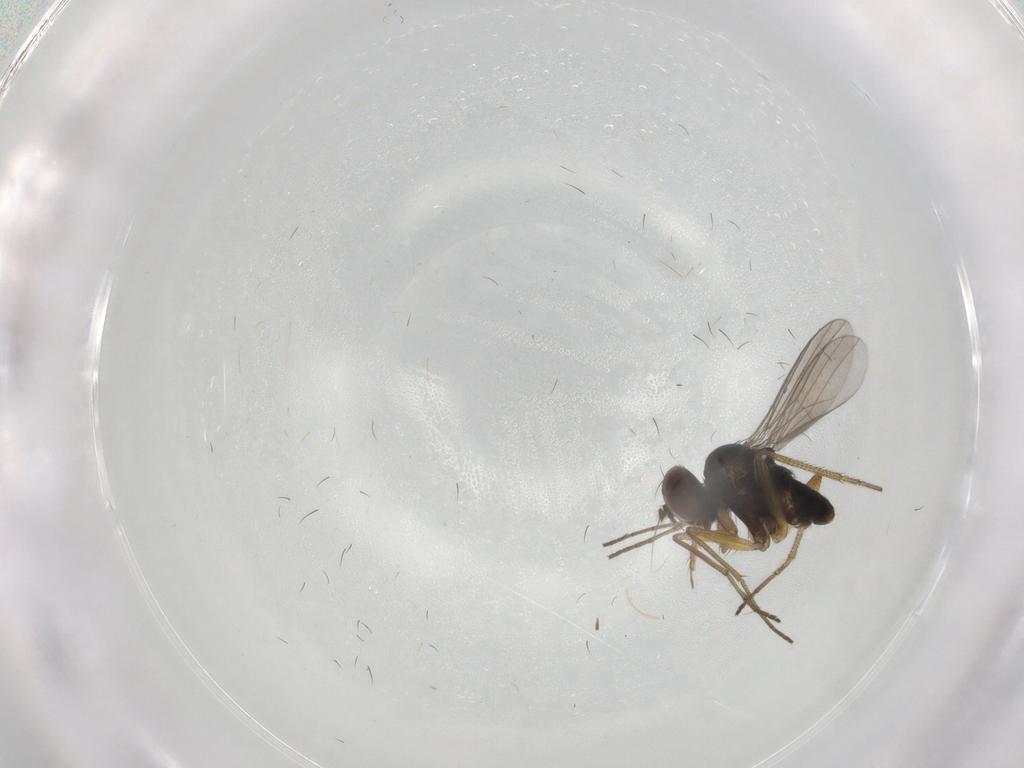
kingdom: Animalia
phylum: Arthropoda
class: Insecta
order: Diptera
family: Dolichopodidae
